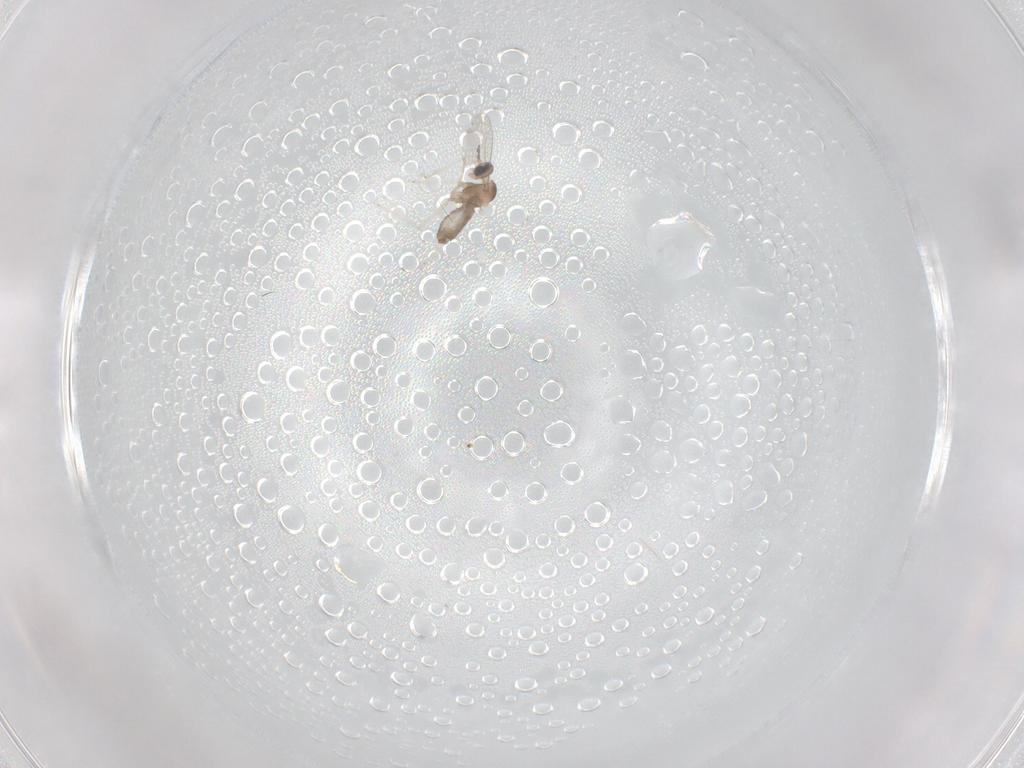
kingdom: Animalia
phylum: Arthropoda
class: Insecta
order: Diptera
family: Cecidomyiidae
